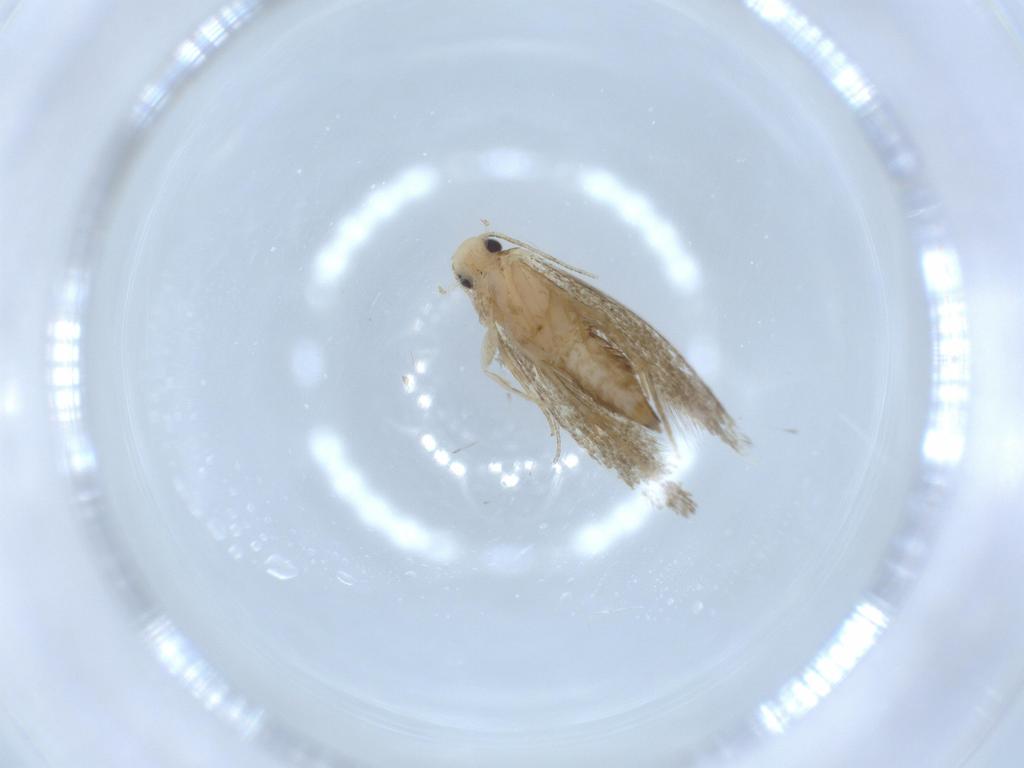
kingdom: Animalia
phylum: Arthropoda
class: Insecta
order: Lepidoptera
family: Tineidae
